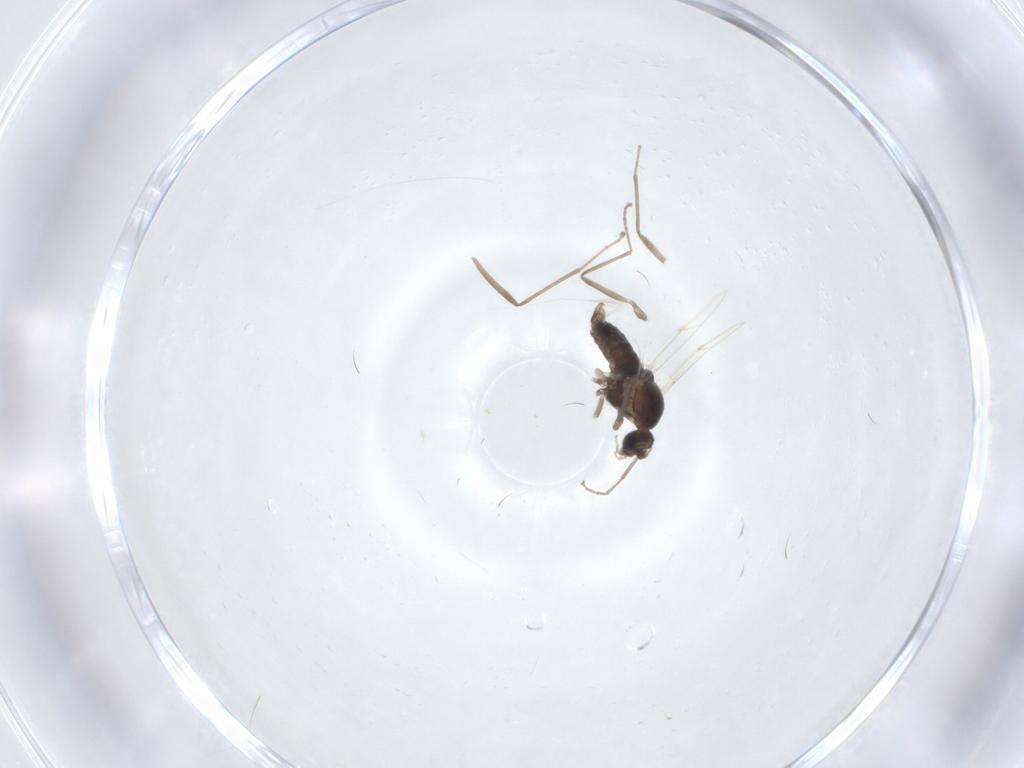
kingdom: Animalia
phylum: Arthropoda
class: Insecta
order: Diptera
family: Cecidomyiidae
